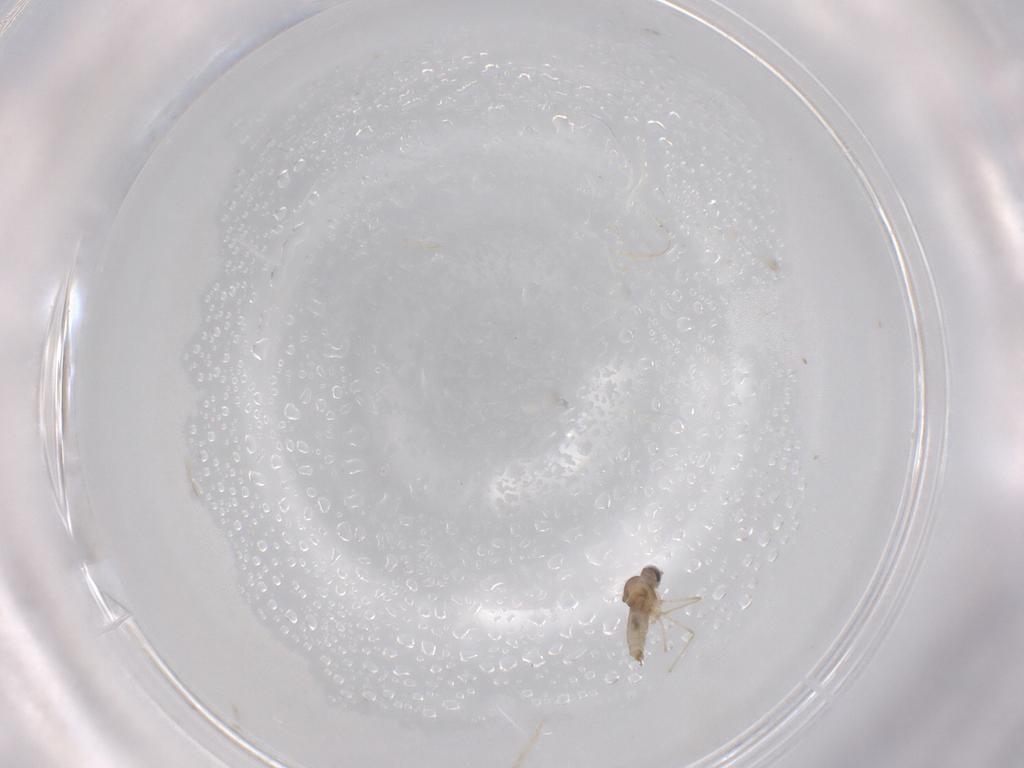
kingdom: Animalia
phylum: Arthropoda
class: Insecta
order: Diptera
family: Cecidomyiidae
